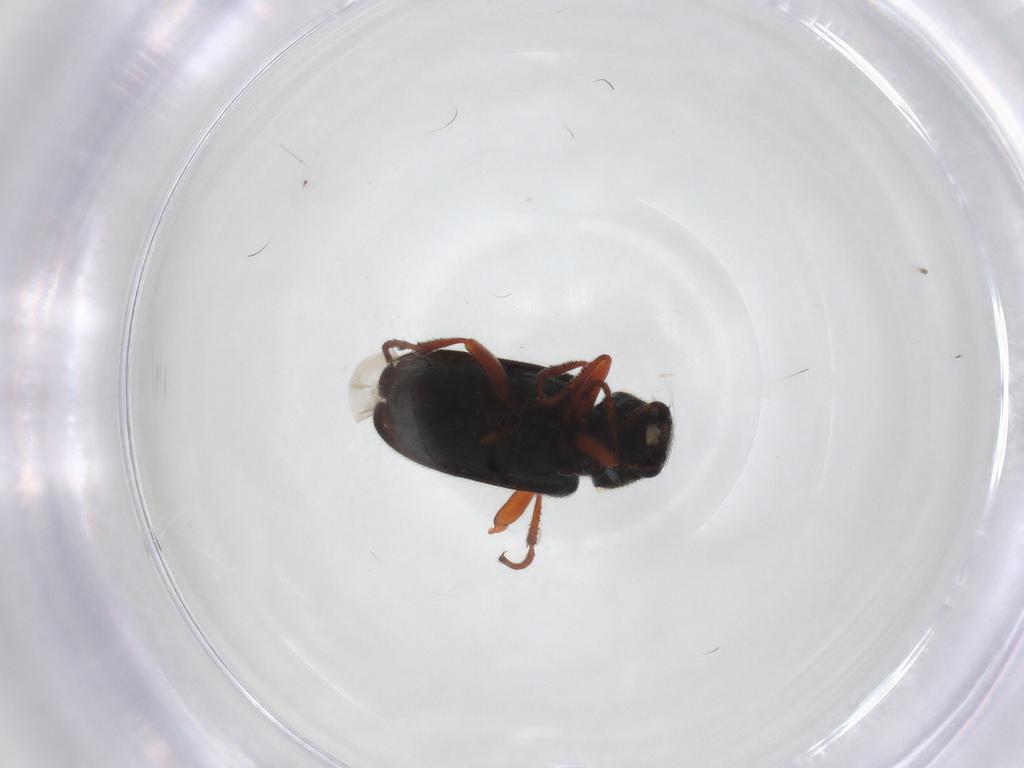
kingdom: Animalia
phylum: Arthropoda
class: Insecta
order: Coleoptera
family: Melyridae
